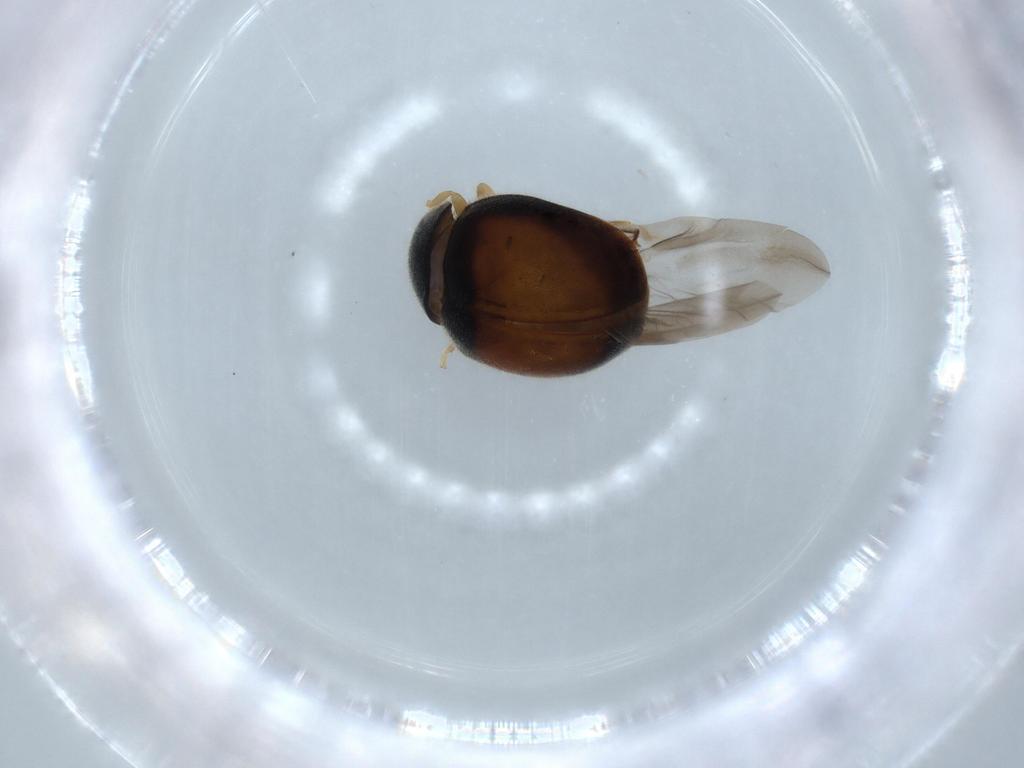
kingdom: Animalia
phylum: Arthropoda
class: Insecta
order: Coleoptera
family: Coccinellidae
